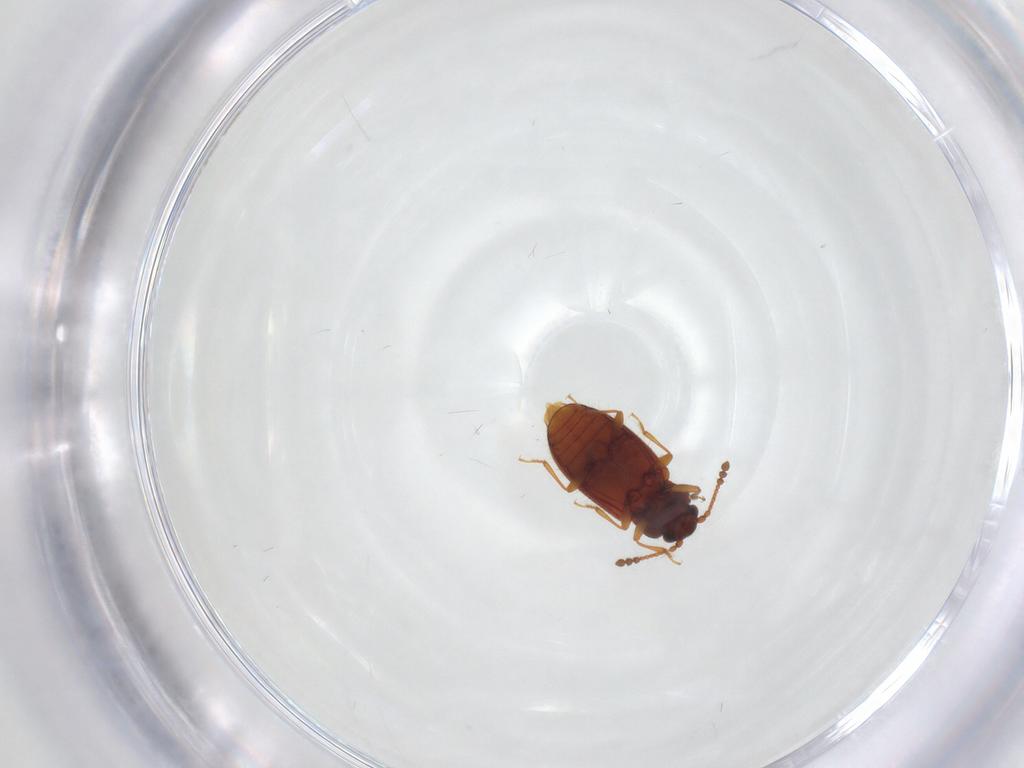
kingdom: Animalia
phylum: Arthropoda
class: Insecta
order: Coleoptera
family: Cryptophagidae
